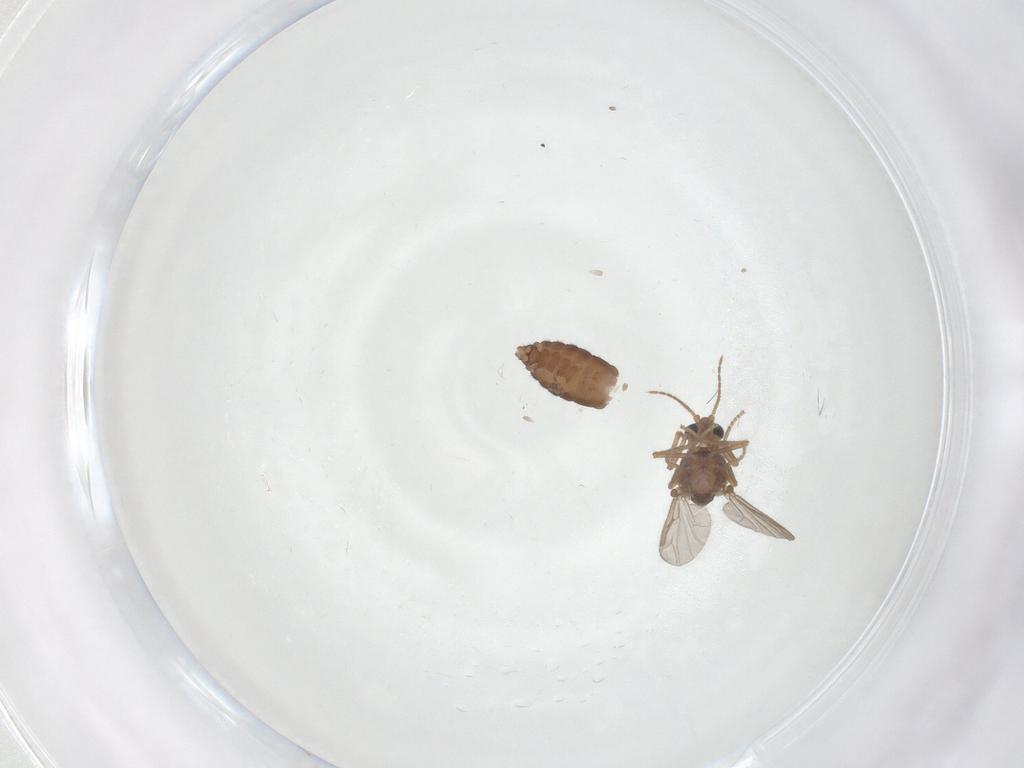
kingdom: Animalia
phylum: Arthropoda
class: Insecta
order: Diptera
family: Ceratopogonidae
